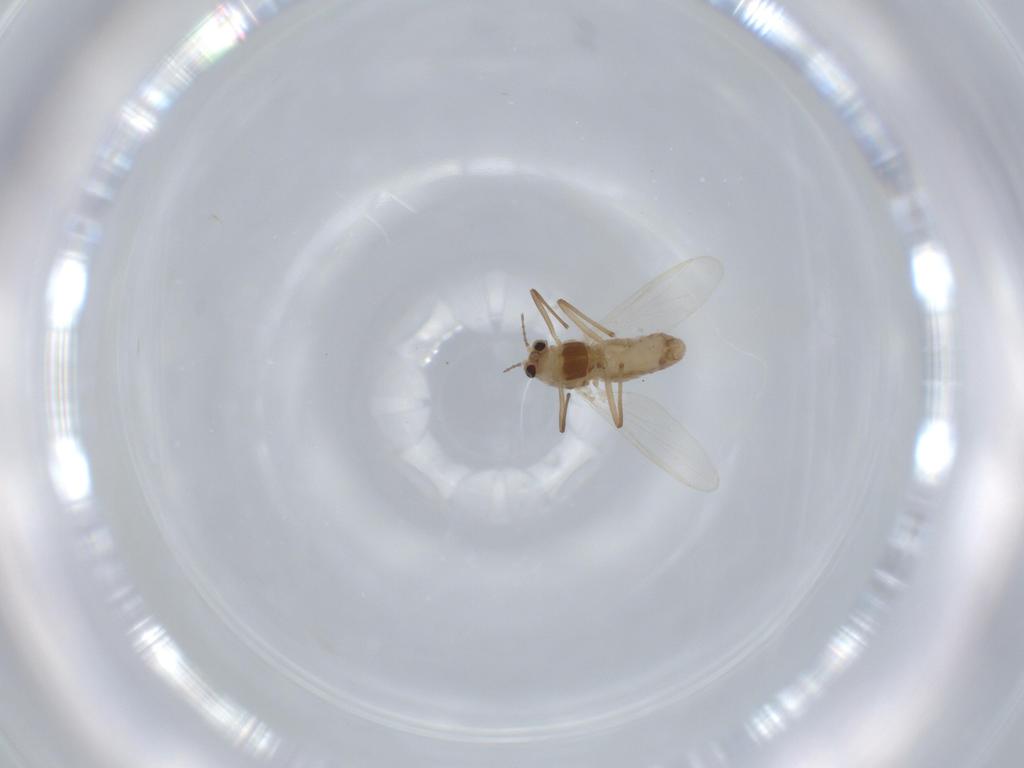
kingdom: Animalia
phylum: Arthropoda
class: Insecta
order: Diptera
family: Chironomidae
